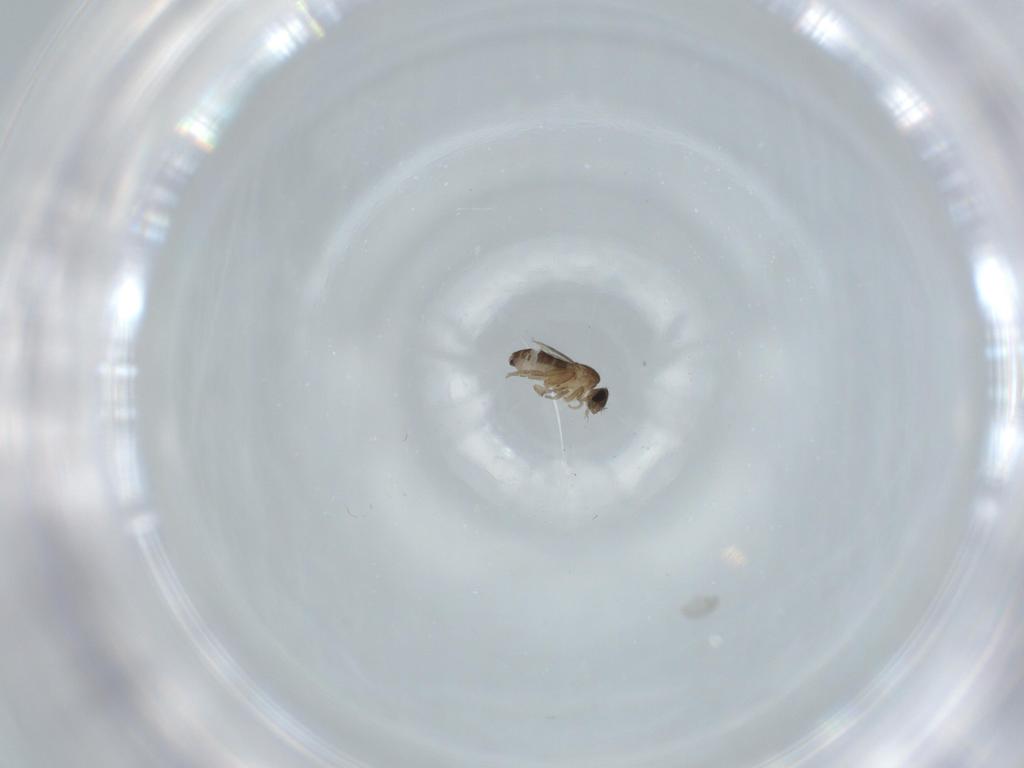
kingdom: Animalia
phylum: Arthropoda
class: Insecta
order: Diptera
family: Phoridae
